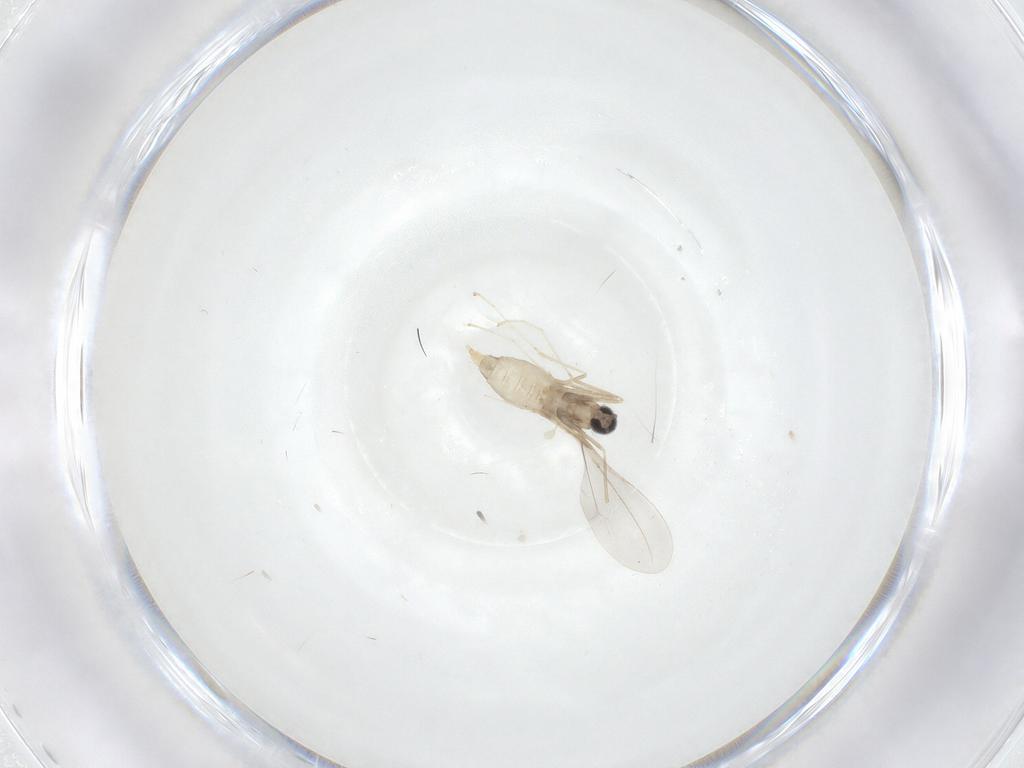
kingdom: Animalia
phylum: Arthropoda
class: Insecta
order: Diptera
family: Cecidomyiidae
